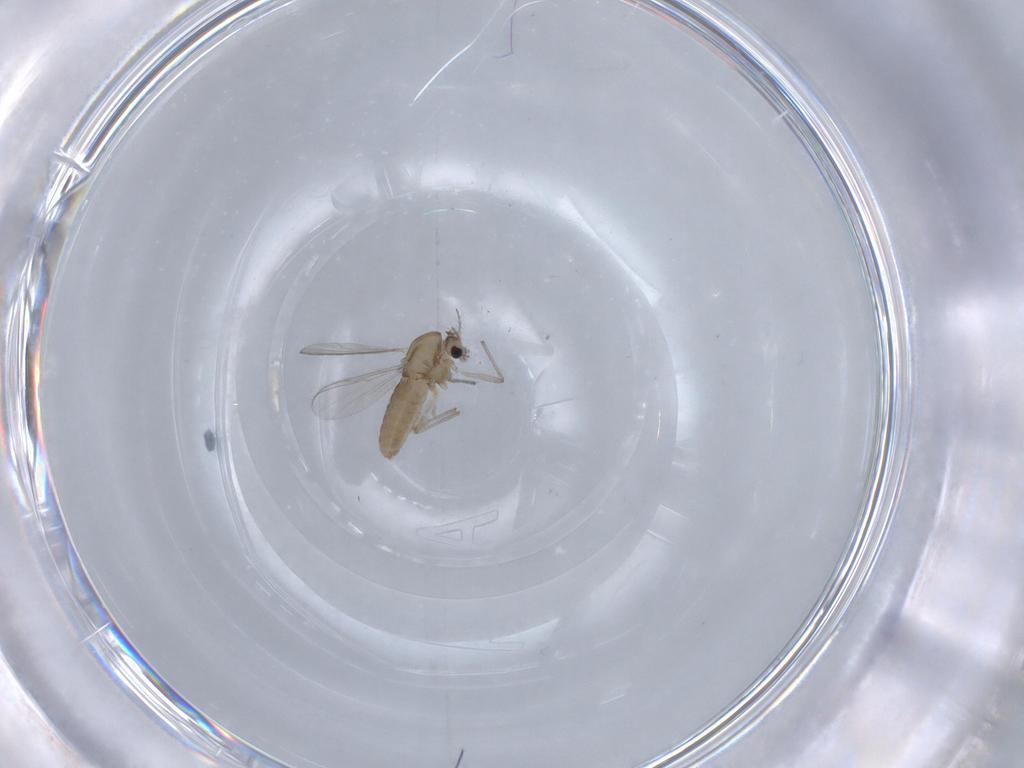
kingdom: Animalia
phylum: Arthropoda
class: Insecta
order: Diptera
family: Chironomidae
